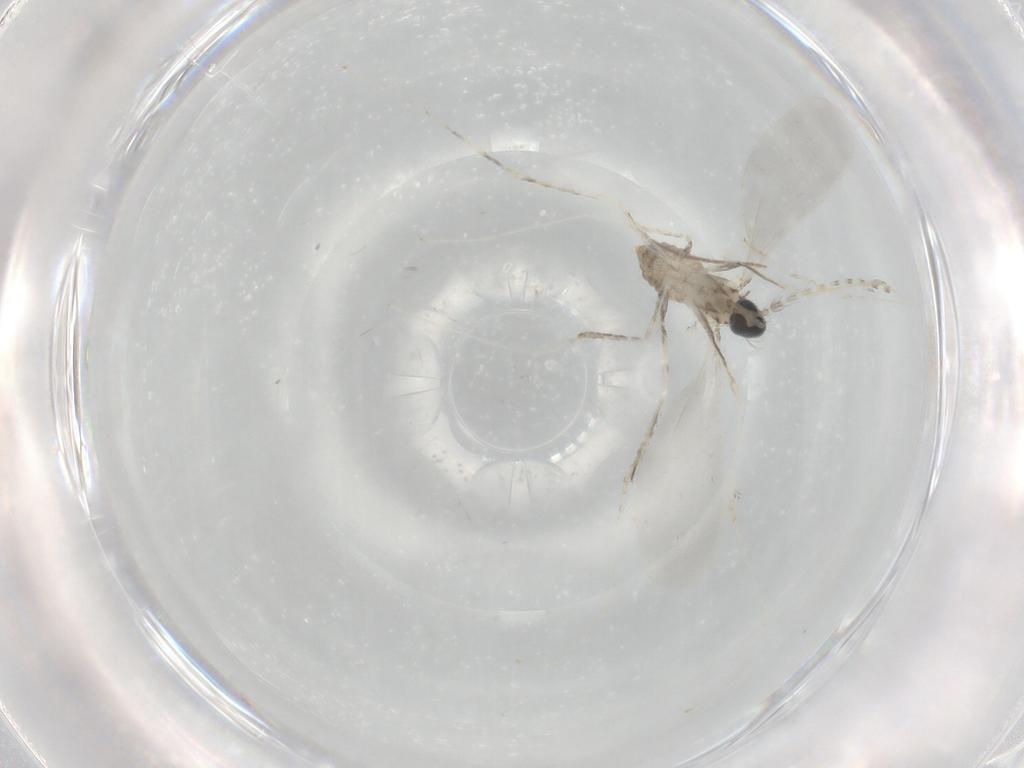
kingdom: Animalia
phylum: Arthropoda
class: Insecta
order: Diptera
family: Cecidomyiidae
